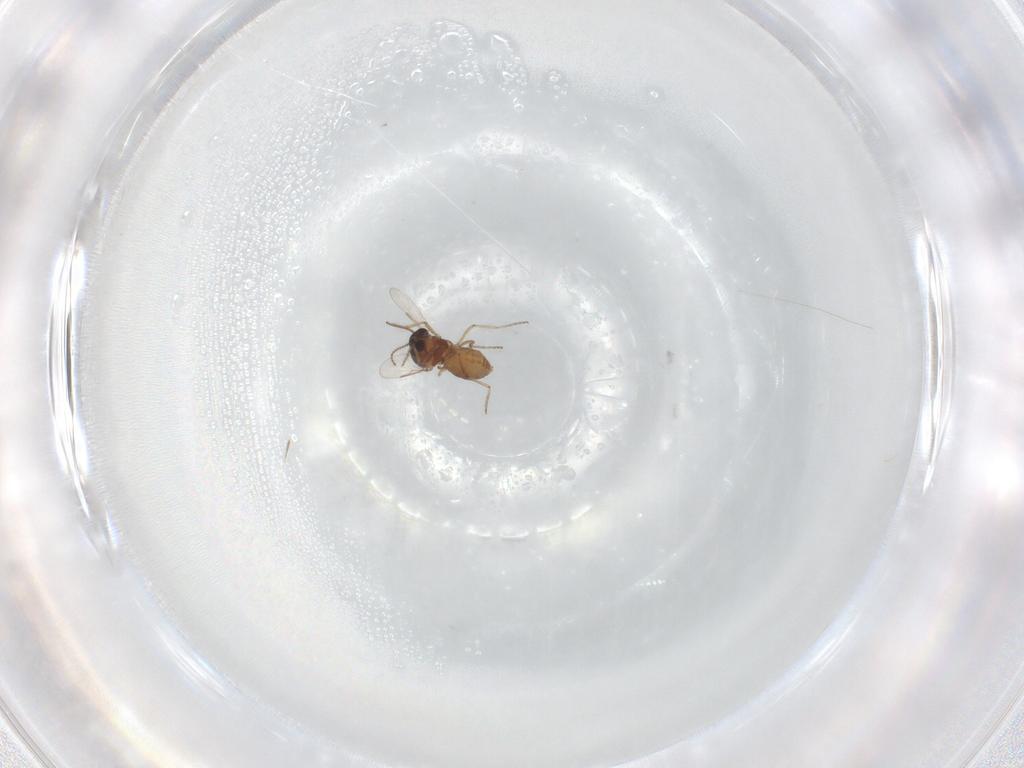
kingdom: Animalia
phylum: Arthropoda
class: Insecta
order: Diptera
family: Ceratopogonidae
